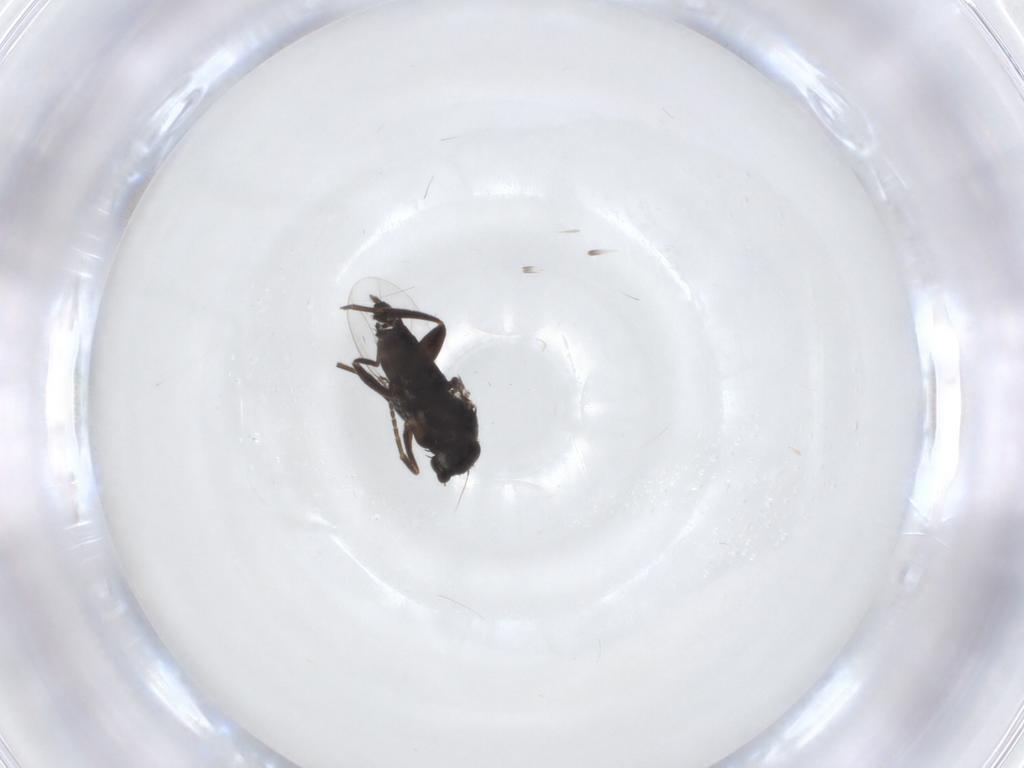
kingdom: Animalia
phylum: Arthropoda
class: Insecta
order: Diptera
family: Phoridae
